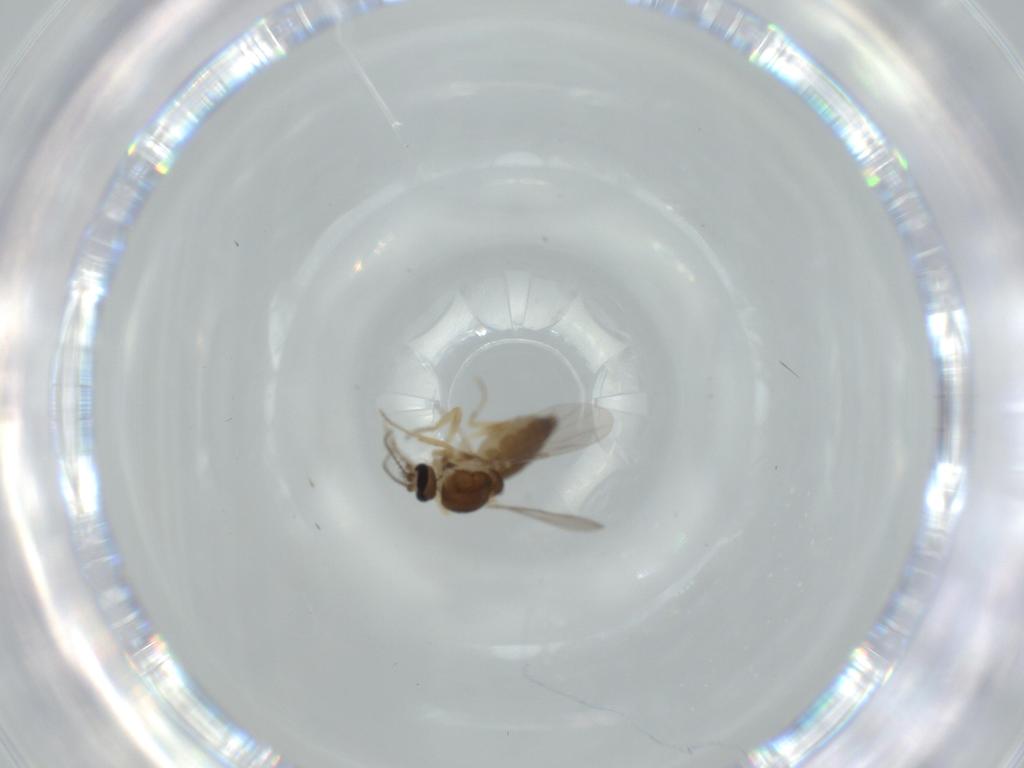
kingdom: Animalia
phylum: Arthropoda
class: Insecta
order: Diptera
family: Ceratopogonidae
